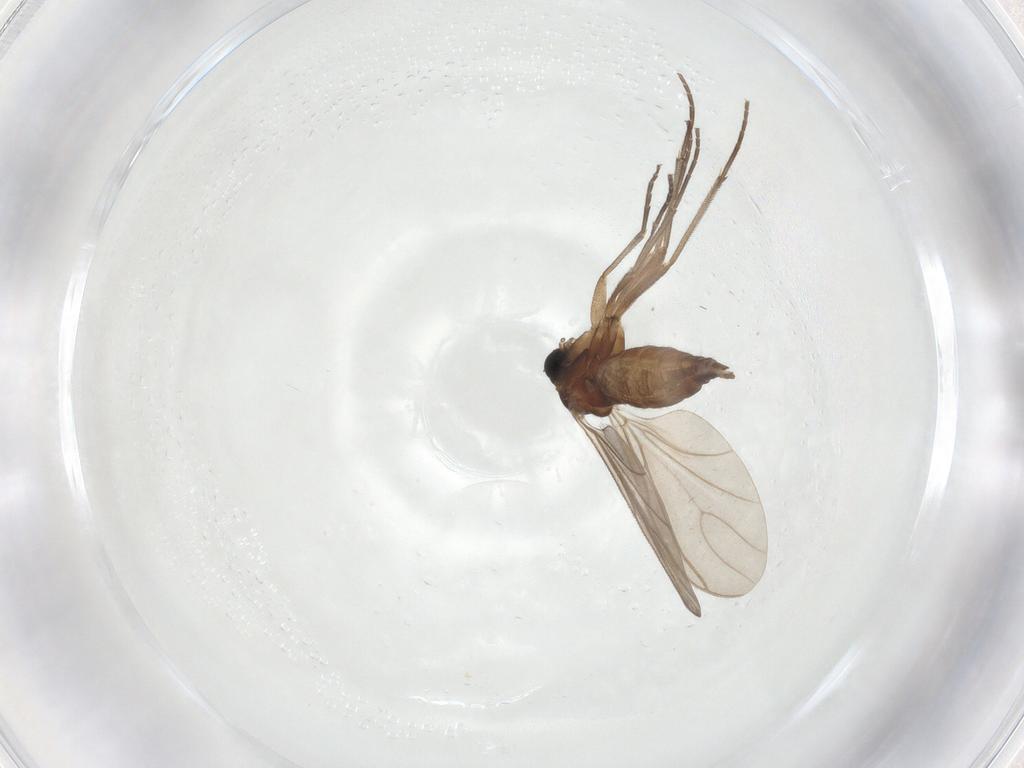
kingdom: Animalia
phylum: Arthropoda
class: Insecta
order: Diptera
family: Sciaridae
